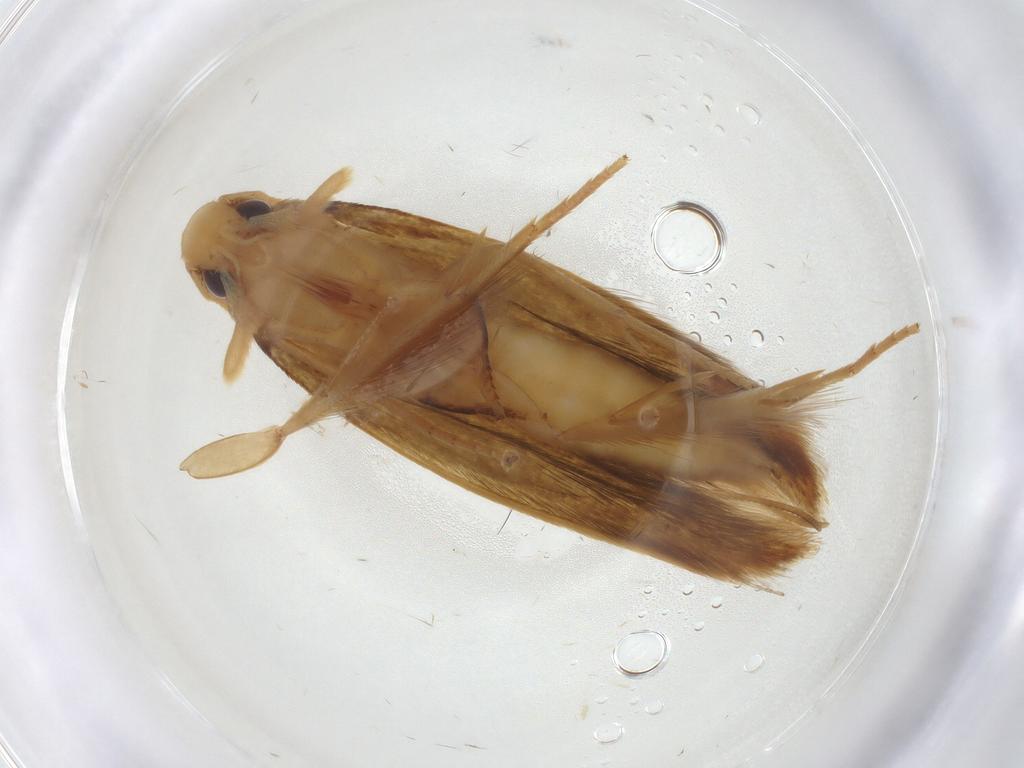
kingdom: Animalia
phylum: Arthropoda
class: Insecta
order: Lepidoptera
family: Tineidae
